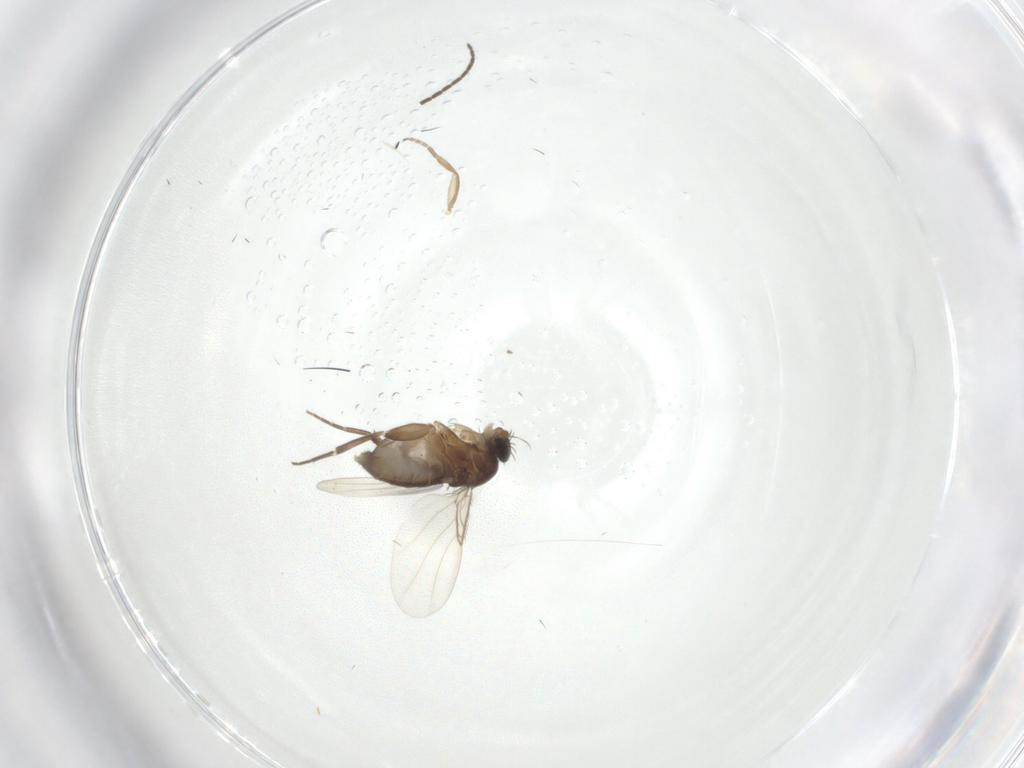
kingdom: Animalia
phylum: Arthropoda
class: Insecta
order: Diptera
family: Phoridae
